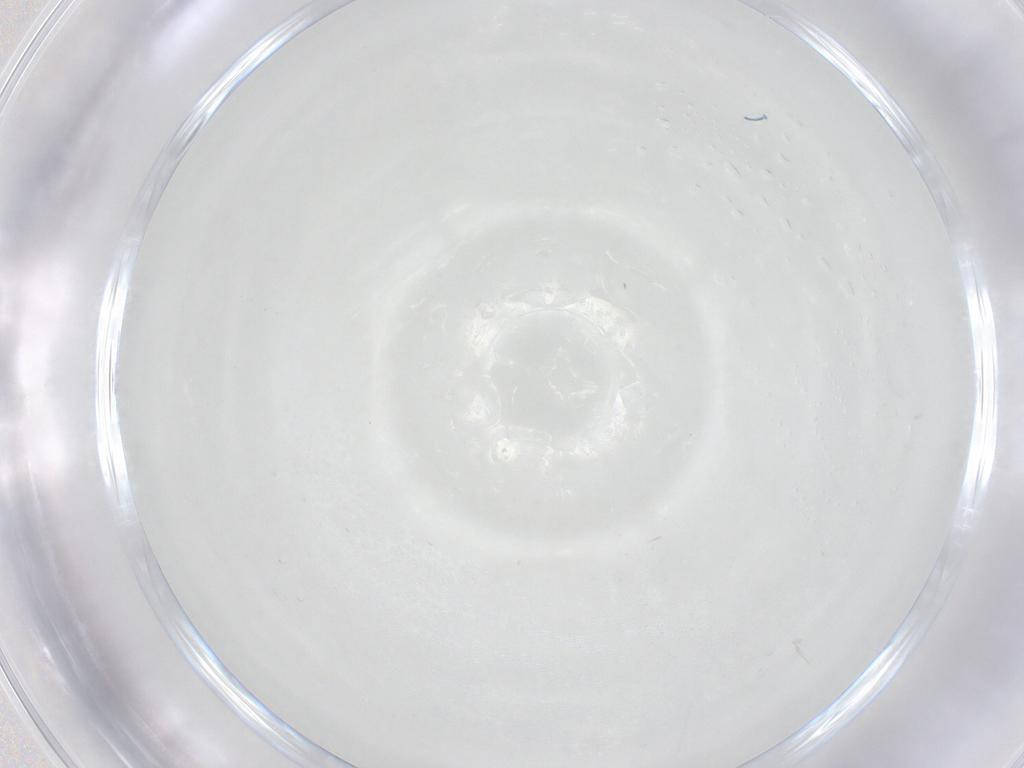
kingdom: Animalia
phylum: Arthropoda
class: Arachnida
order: Trombidiformes
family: Tetranychidae
